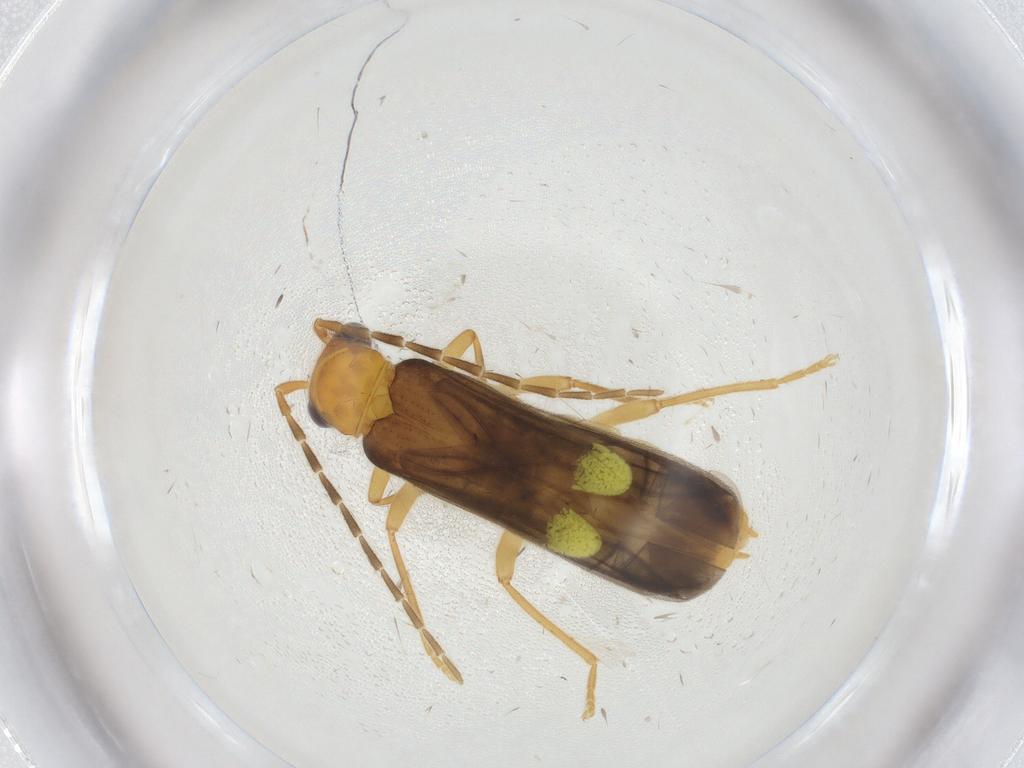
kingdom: Animalia
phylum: Arthropoda
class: Insecta
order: Coleoptera
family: Cantharidae
